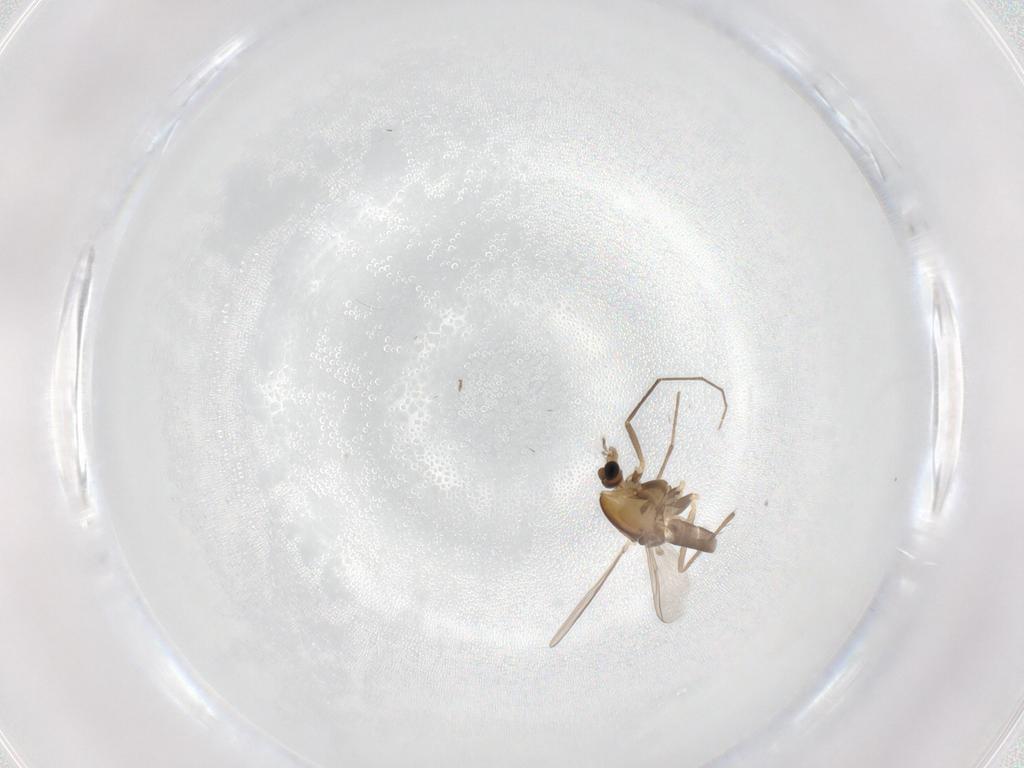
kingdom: Animalia
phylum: Arthropoda
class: Insecta
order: Diptera
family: Chironomidae
